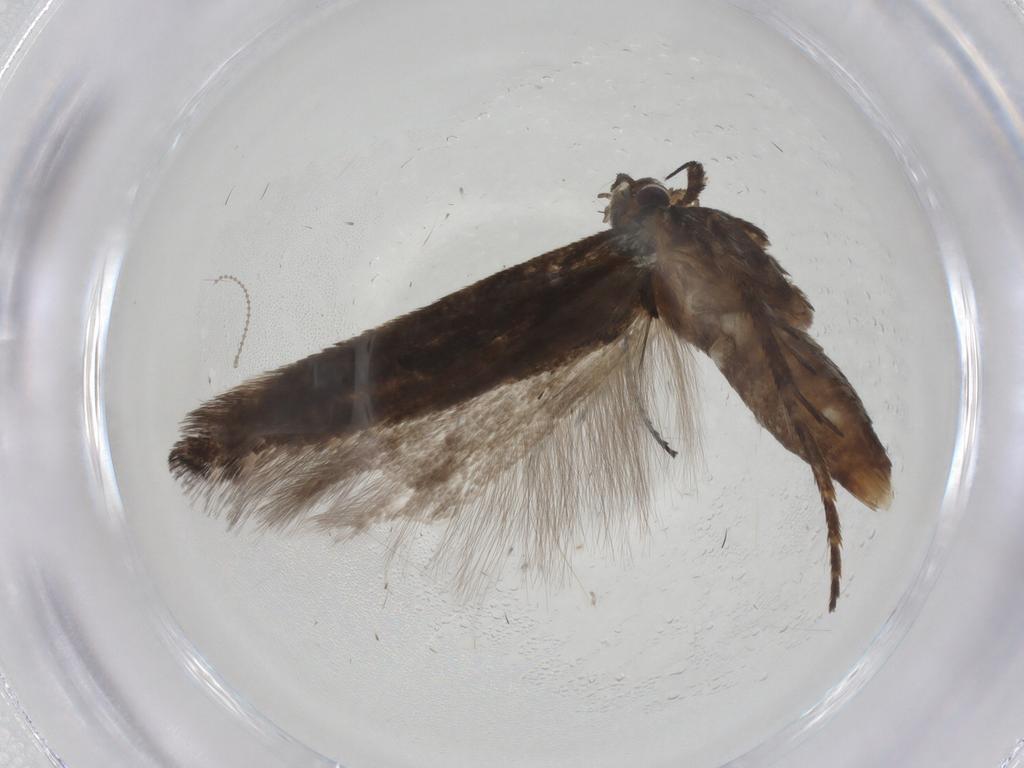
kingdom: Animalia
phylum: Arthropoda
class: Insecta
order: Lepidoptera
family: Gelechiidae
